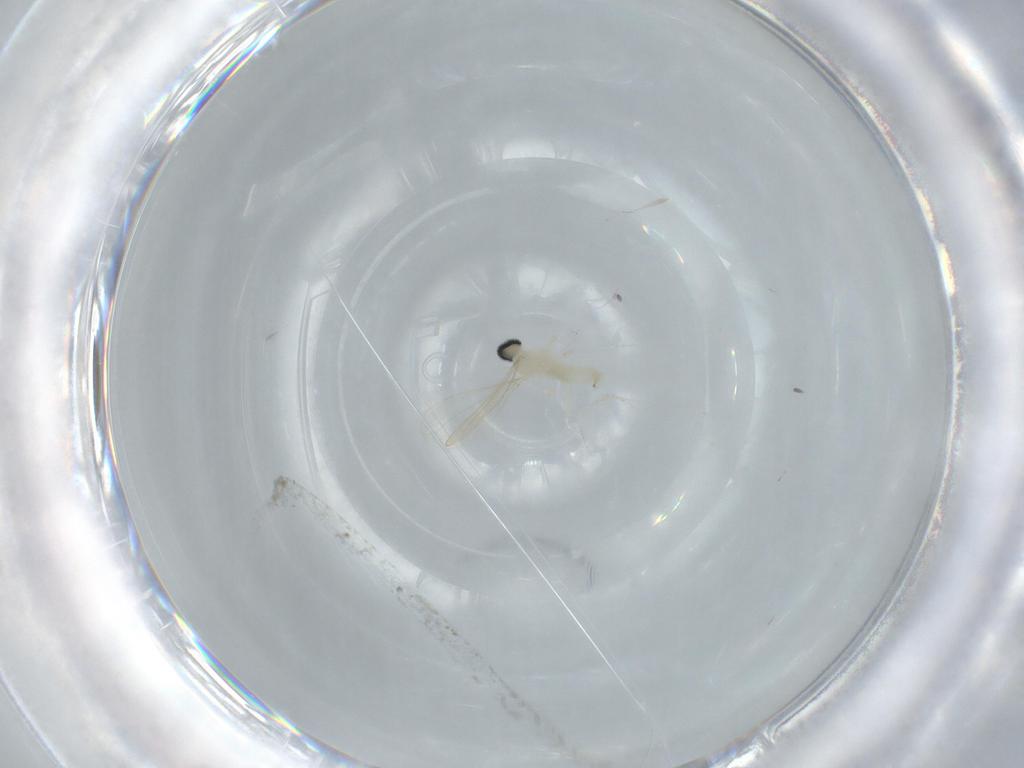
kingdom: Animalia
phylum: Arthropoda
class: Insecta
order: Diptera
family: Cecidomyiidae
